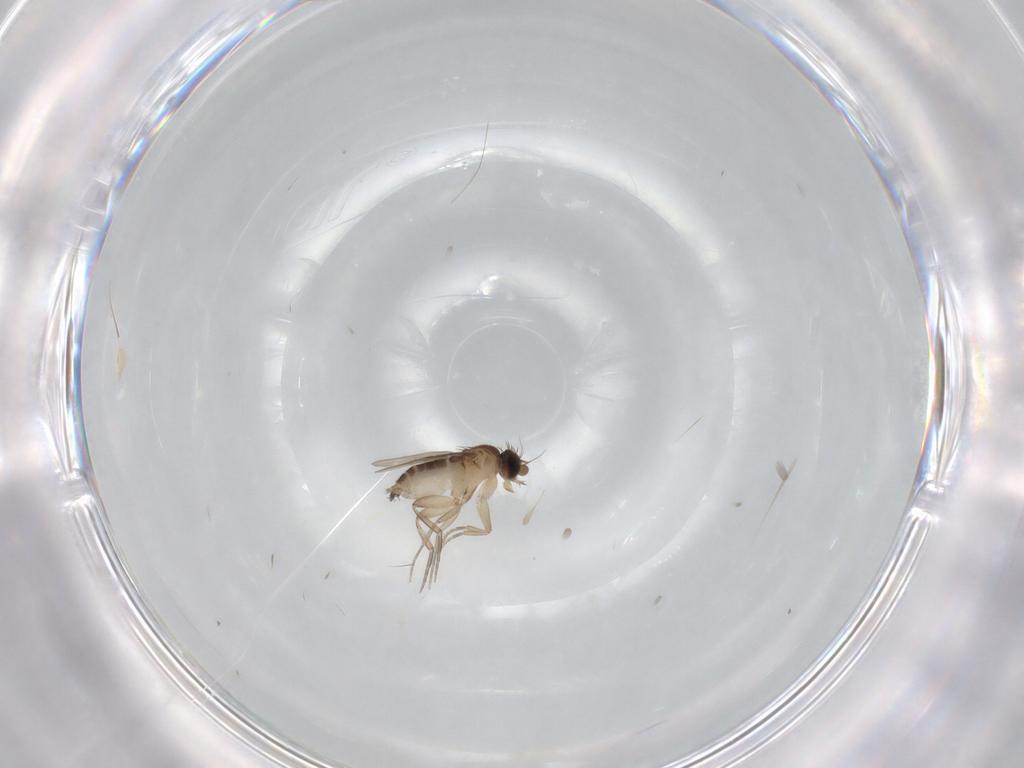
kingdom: Animalia
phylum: Arthropoda
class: Insecta
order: Diptera
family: Phoridae
